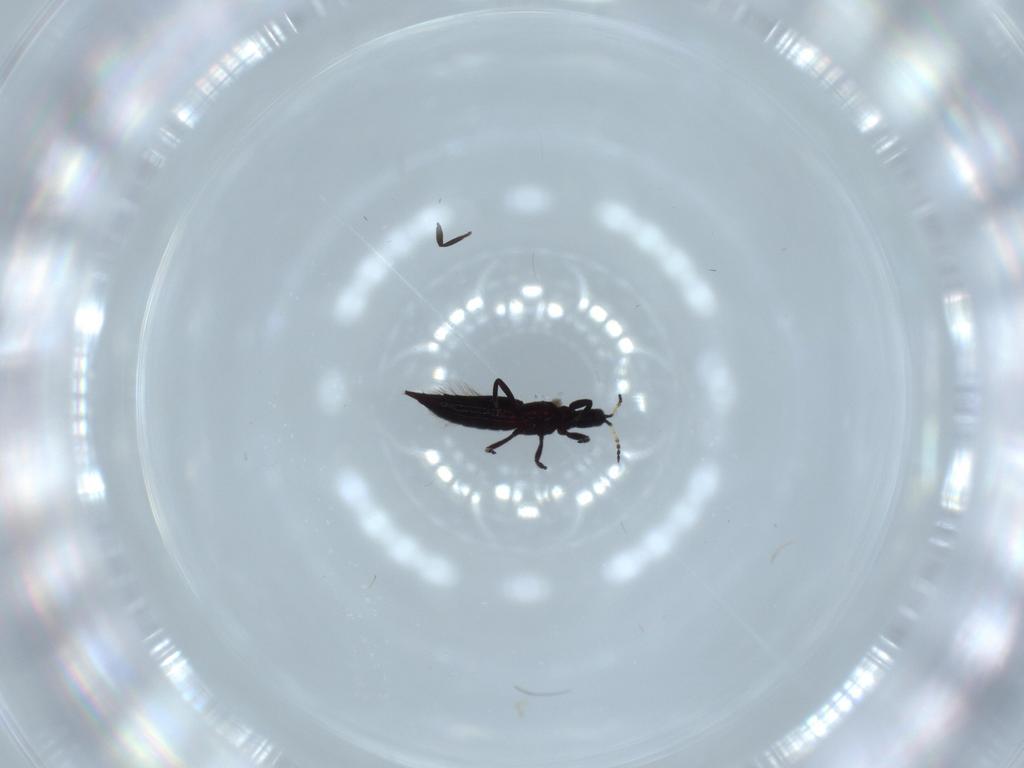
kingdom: Animalia
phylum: Arthropoda
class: Insecta
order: Thysanoptera
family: Phlaeothripidae
